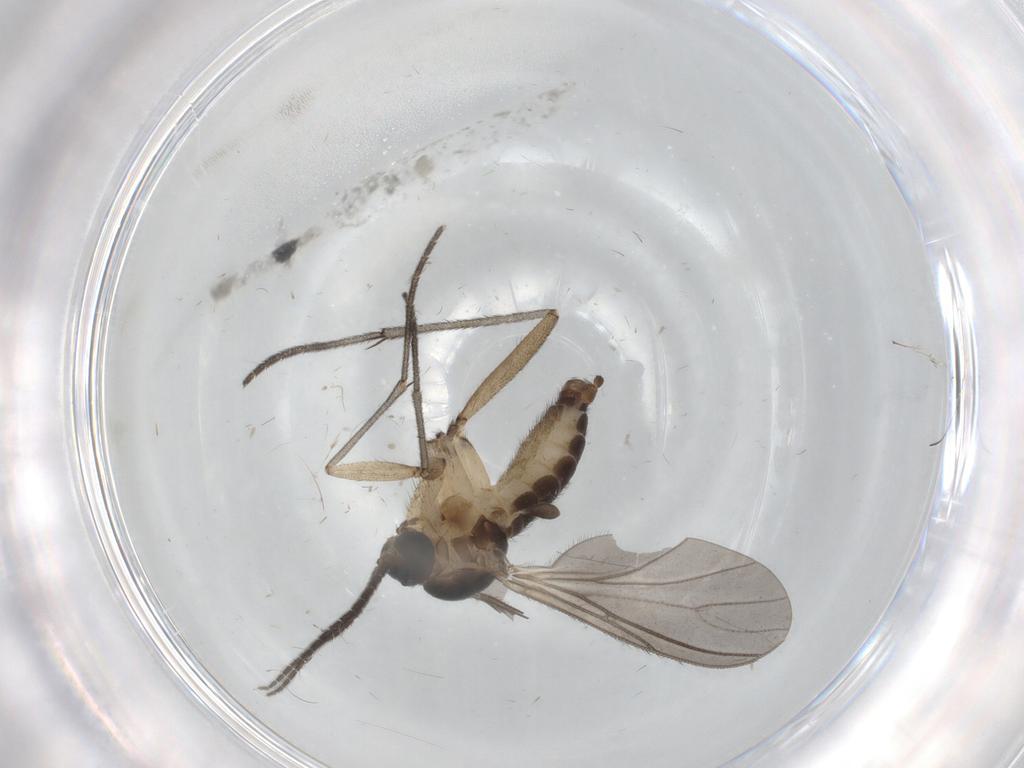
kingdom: Animalia
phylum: Arthropoda
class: Insecta
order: Diptera
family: Sciaridae
